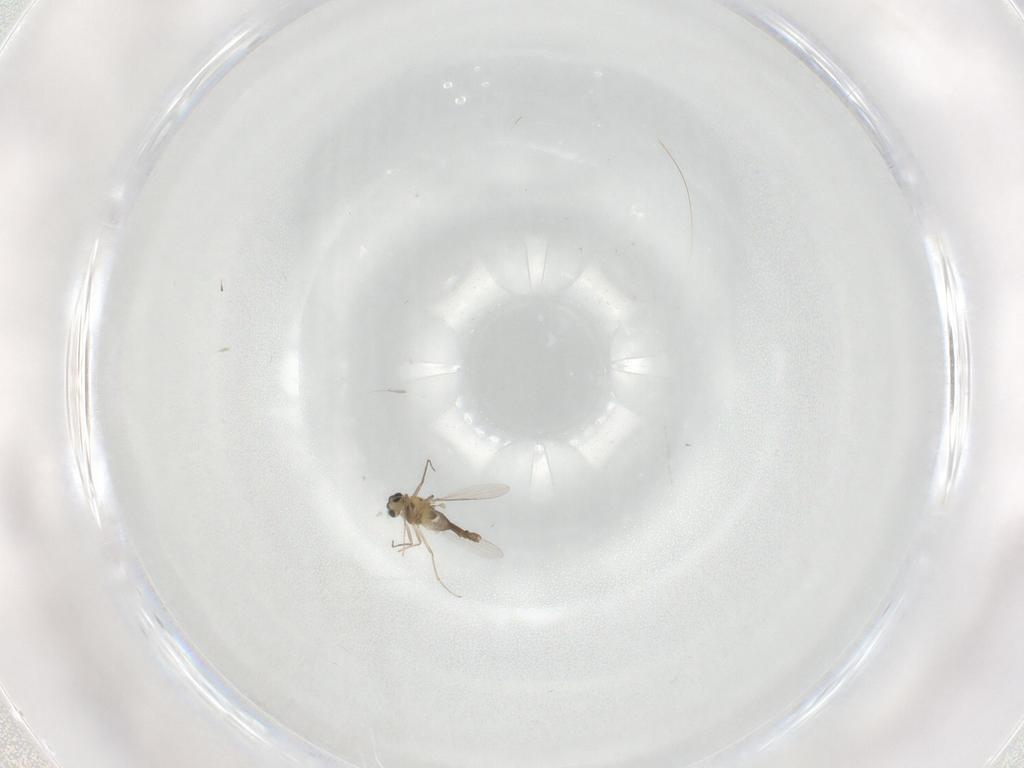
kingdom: Animalia
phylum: Arthropoda
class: Insecta
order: Diptera
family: Chironomidae
